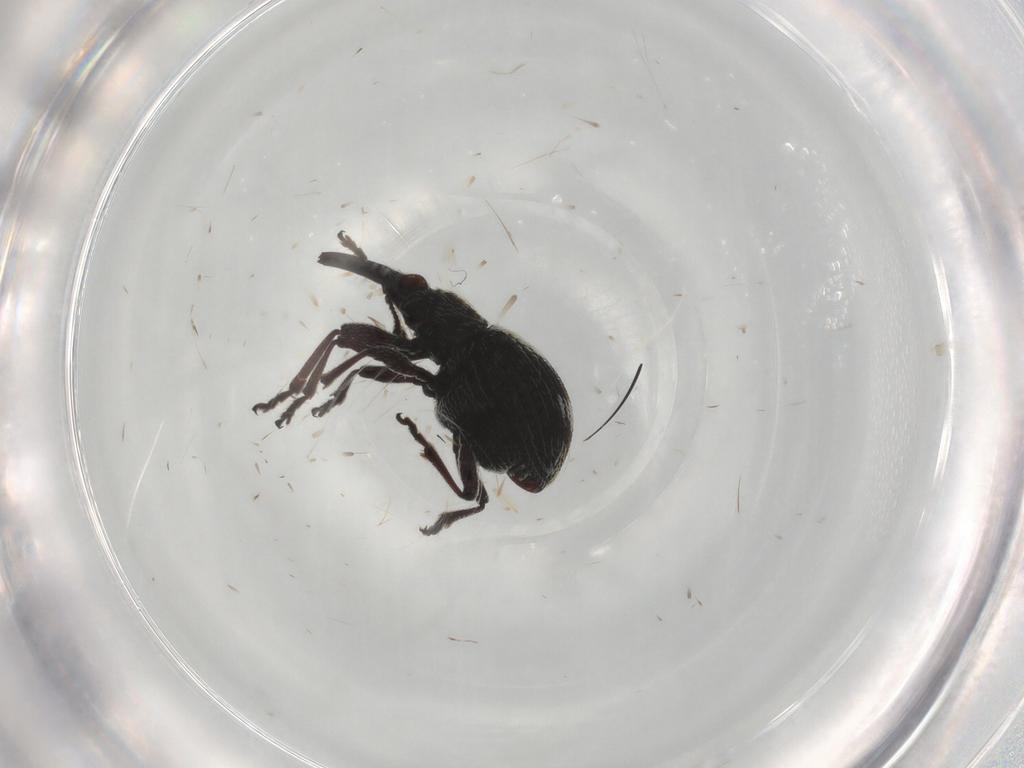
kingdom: Animalia
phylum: Arthropoda
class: Insecta
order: Coleoptera
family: Brentidae
